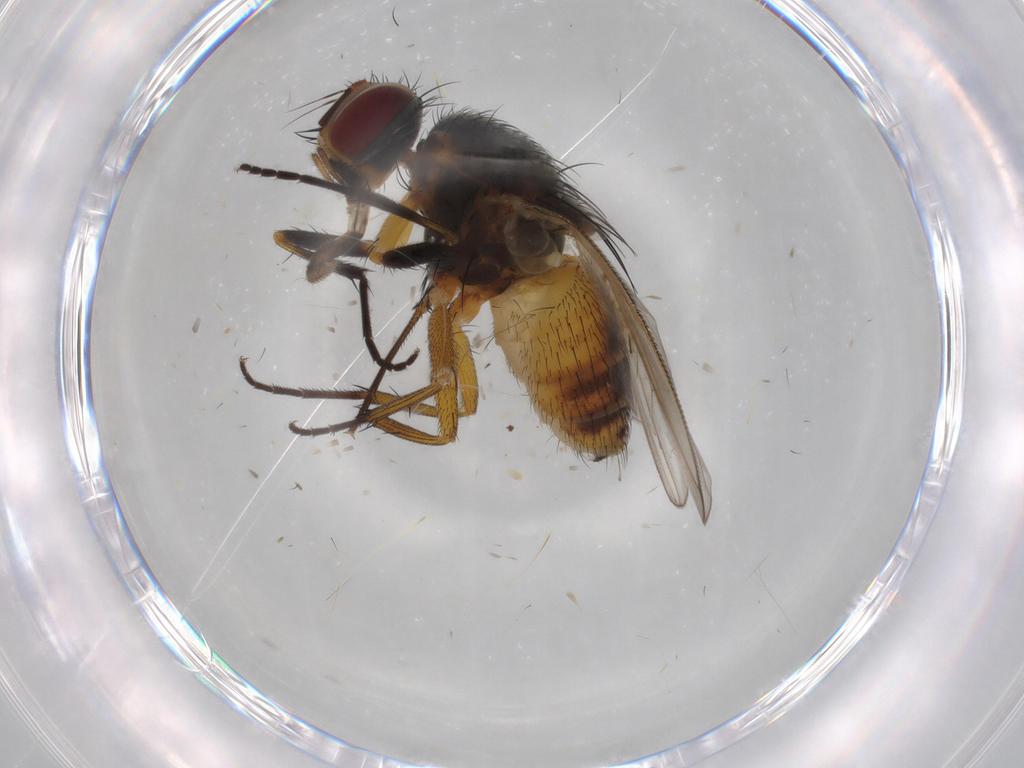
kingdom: Animalia
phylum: Arthropoda
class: Insecta
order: Diptera
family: Muscidae
